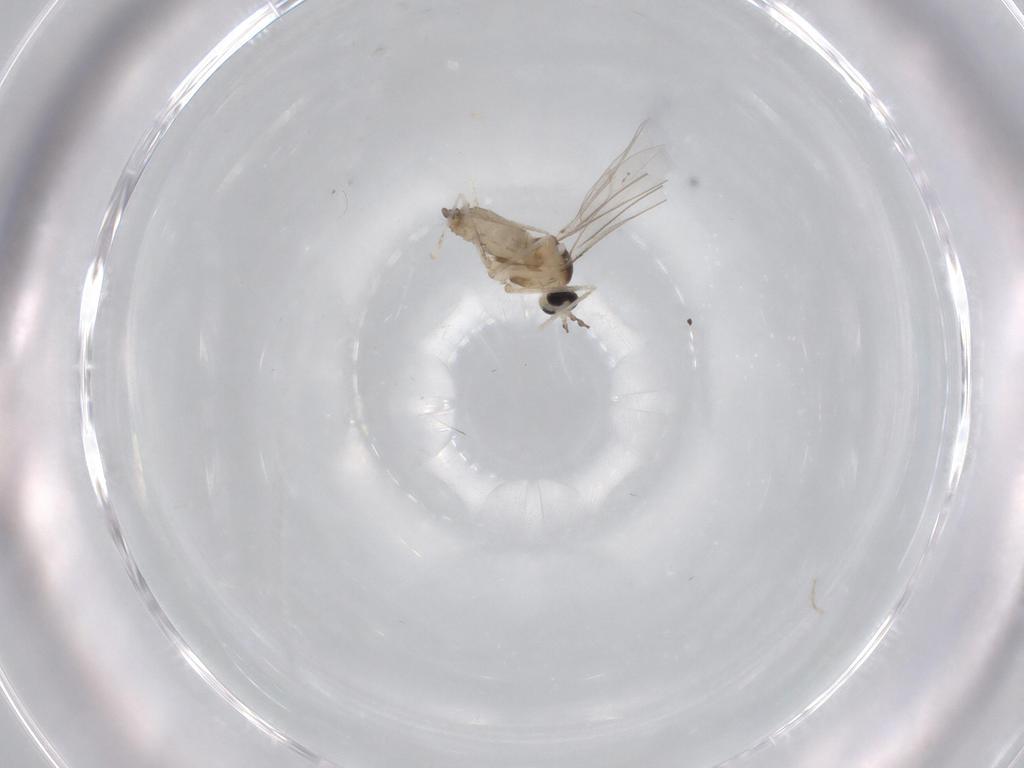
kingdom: Animalia
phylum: Arthropoda
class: Insecta
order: Diptera
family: Cecidomyiidae
